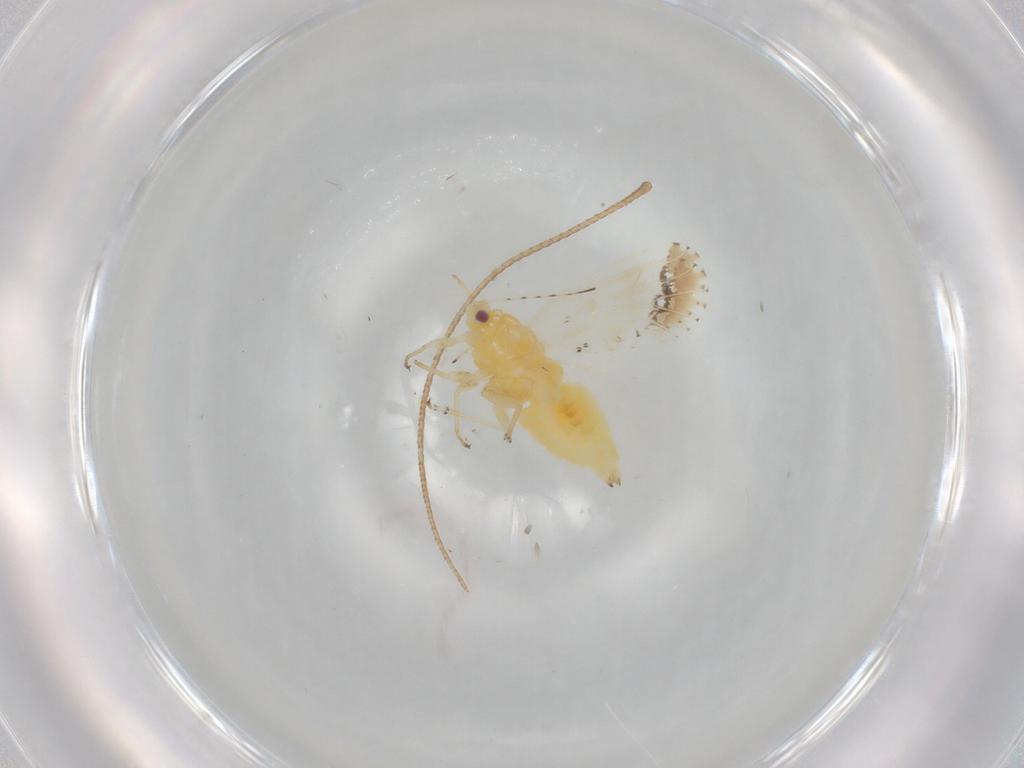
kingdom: Animalia
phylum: Arthropoda
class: Insecta
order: Hemiptera
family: Psyllidae
